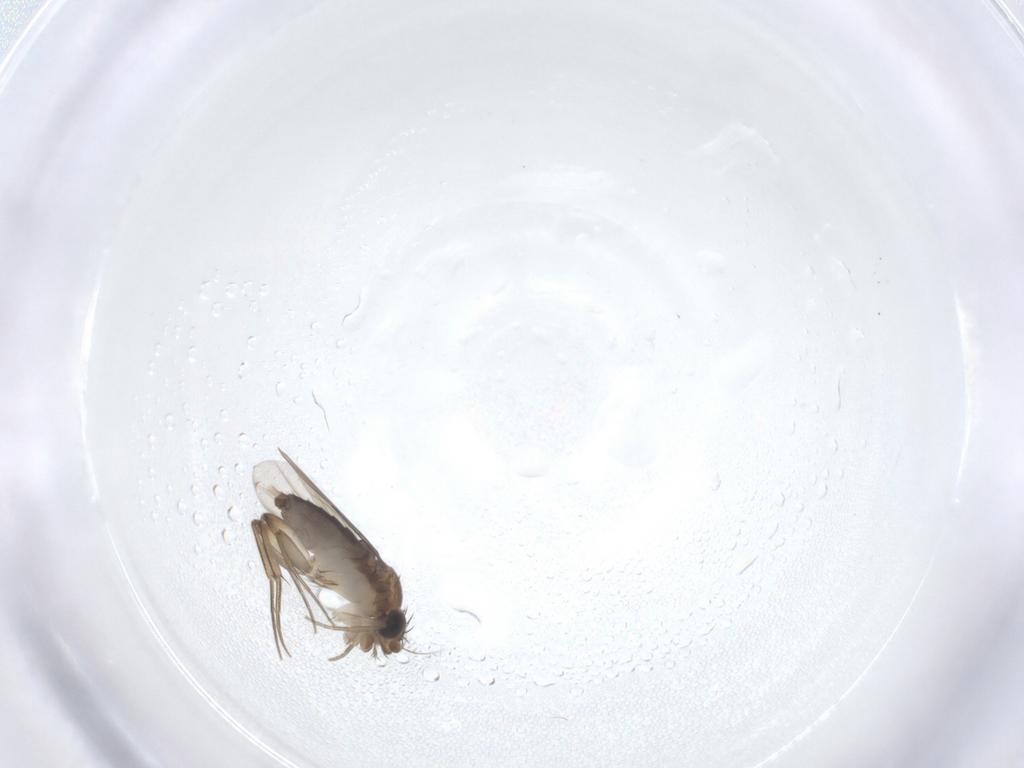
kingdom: Animalia
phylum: Arthropoda
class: Insecta
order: Diptera
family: Phoridae
